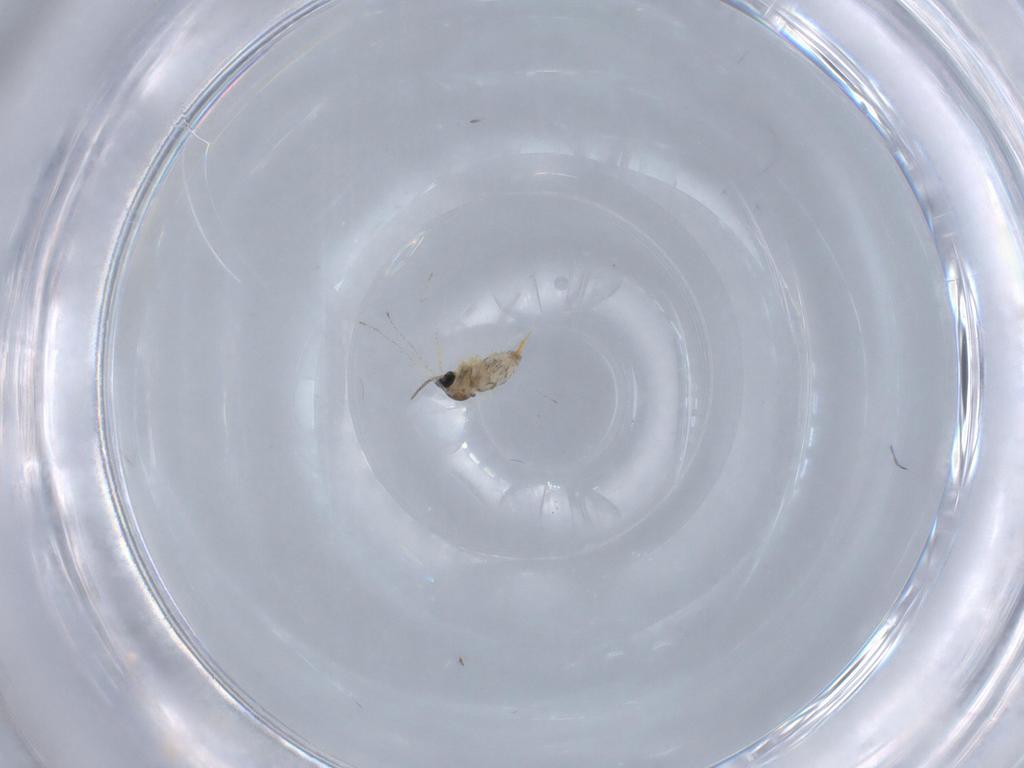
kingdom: Animalia
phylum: Arthropoda
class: Insecta
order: Diptera
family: Cecidomyiidae
